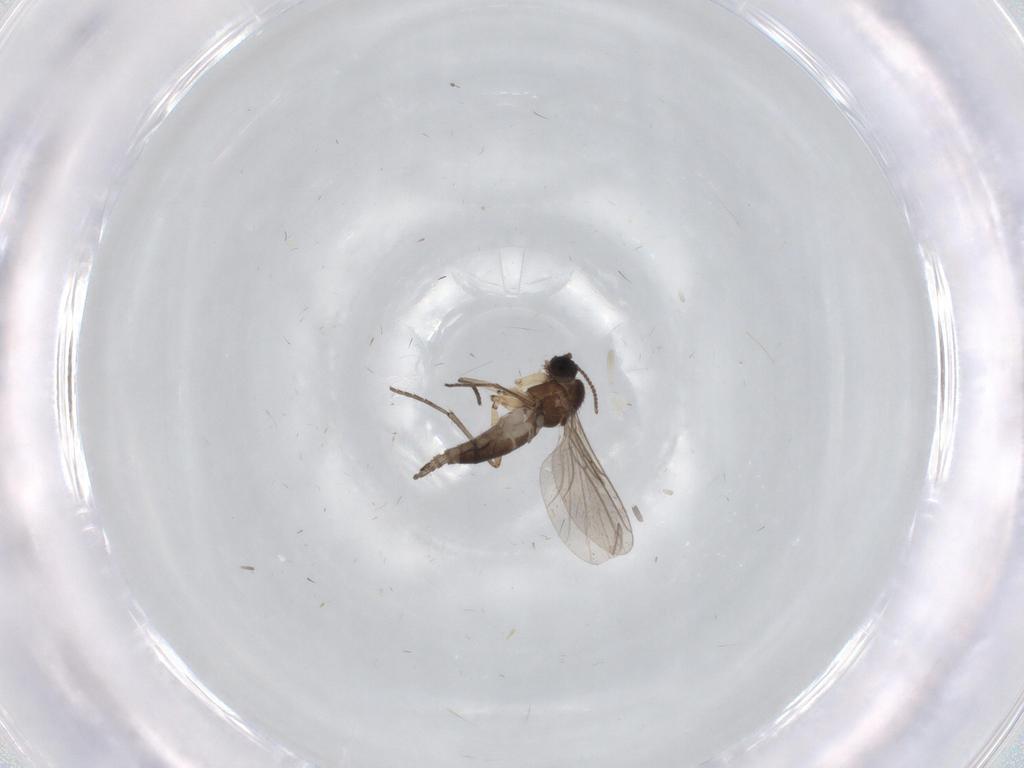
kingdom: Animalia
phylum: Arthropoda
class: Insecta
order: Diptera
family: Sciaridae
